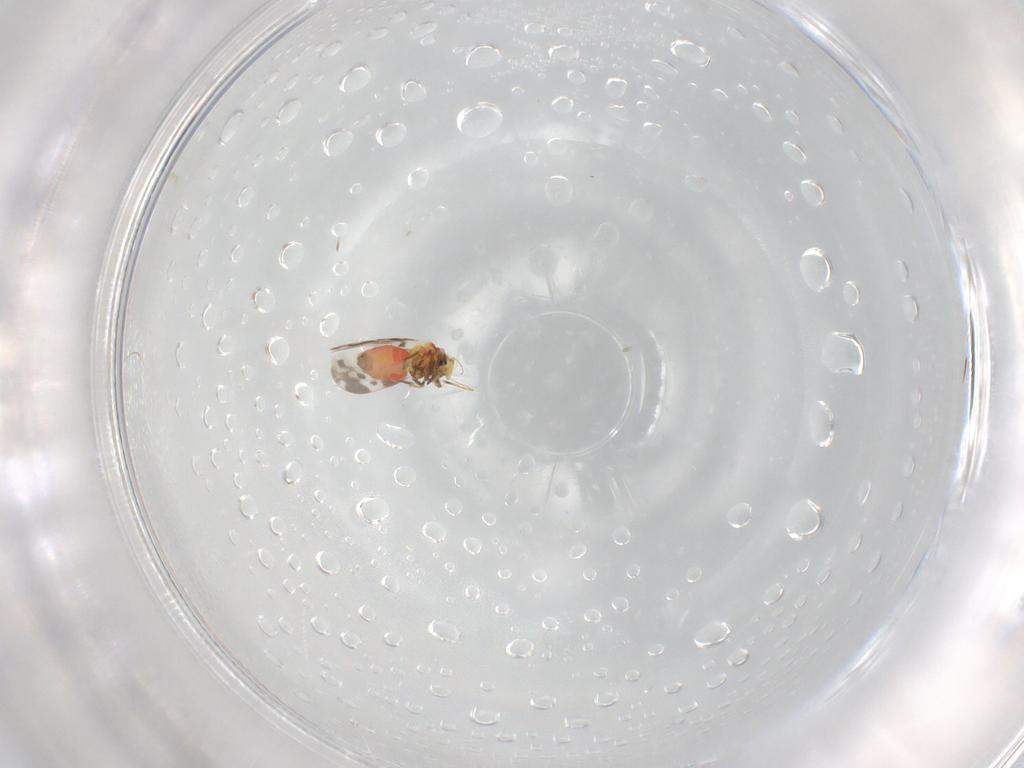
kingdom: Animalia
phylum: Arthropoda
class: Insecta
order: Hemiptera
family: Aleyrodidae
